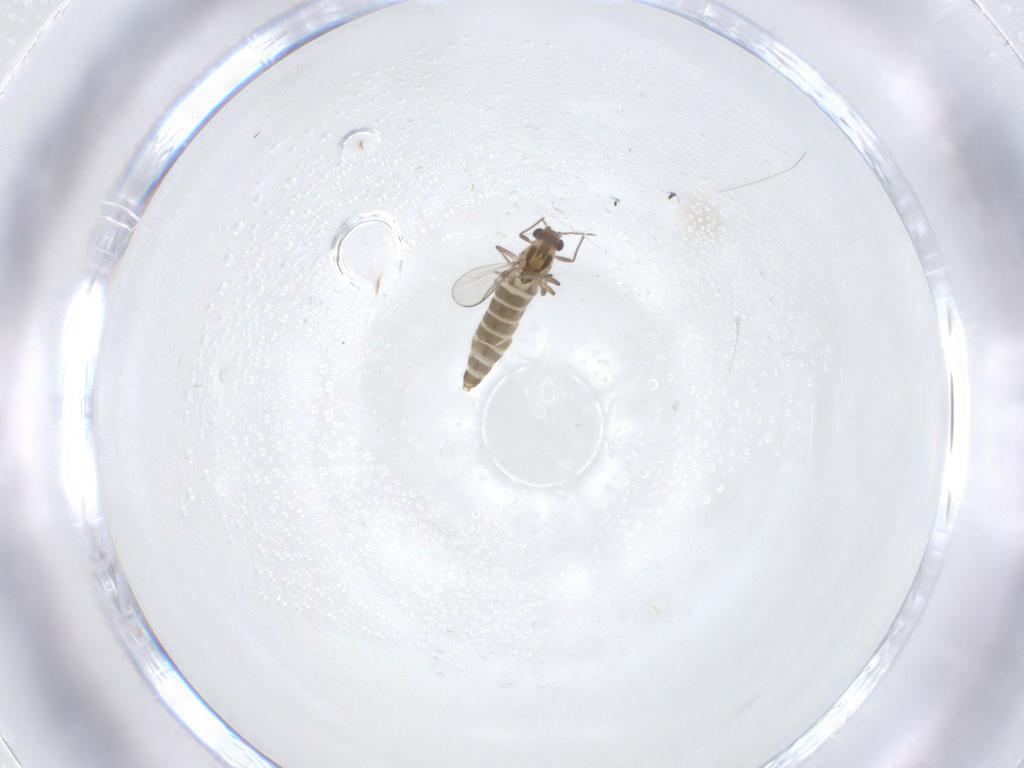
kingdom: Animalia
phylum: Arthropoda
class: Insecta
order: Diptera
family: Chironomidae
